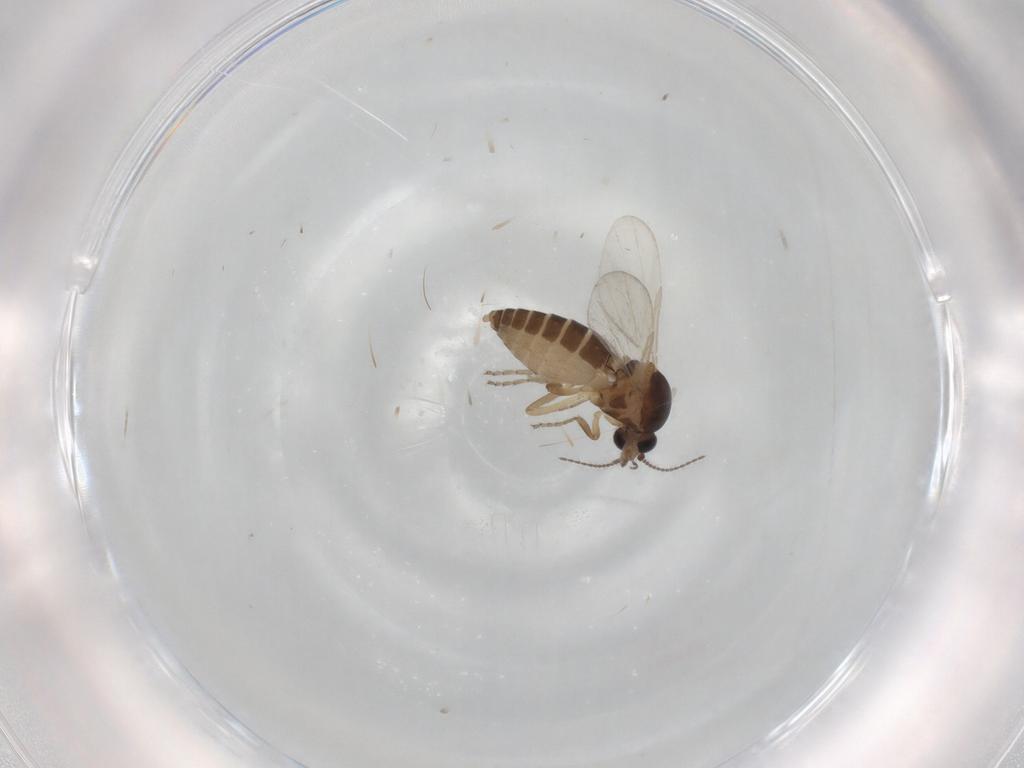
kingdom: Animalia
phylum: Arthropoda
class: Insecta
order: Diptera
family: Ceratopogonidae
